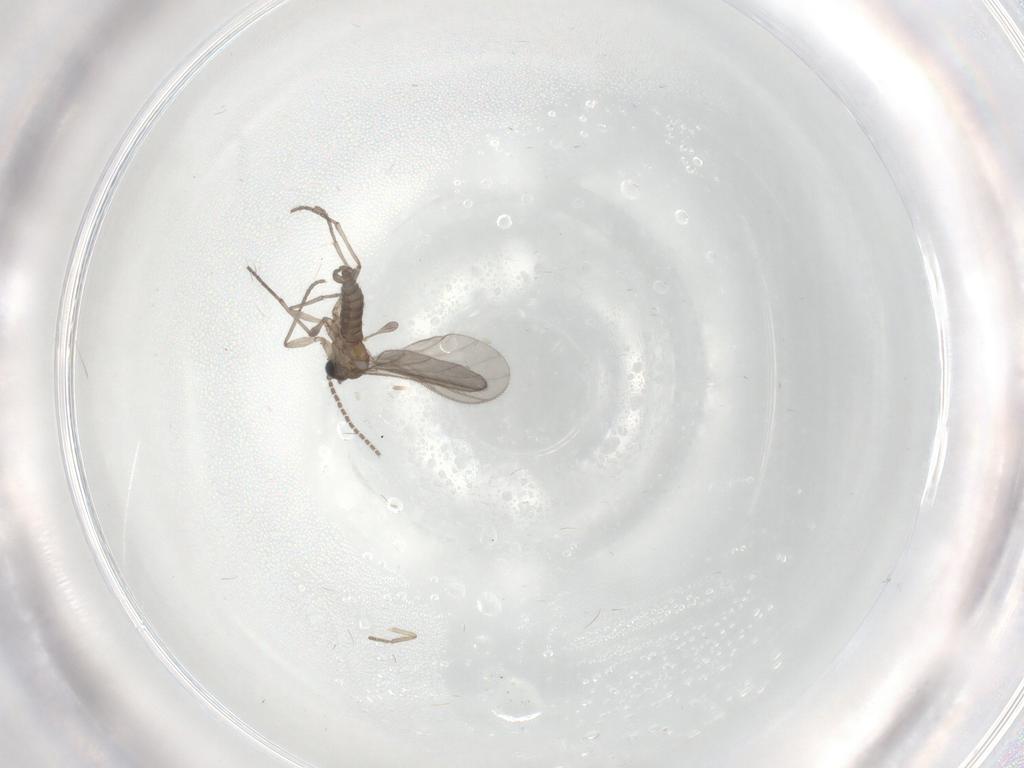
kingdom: Animalia
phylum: Arthropoda
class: Insecta
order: Diptera
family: Sciaridae
